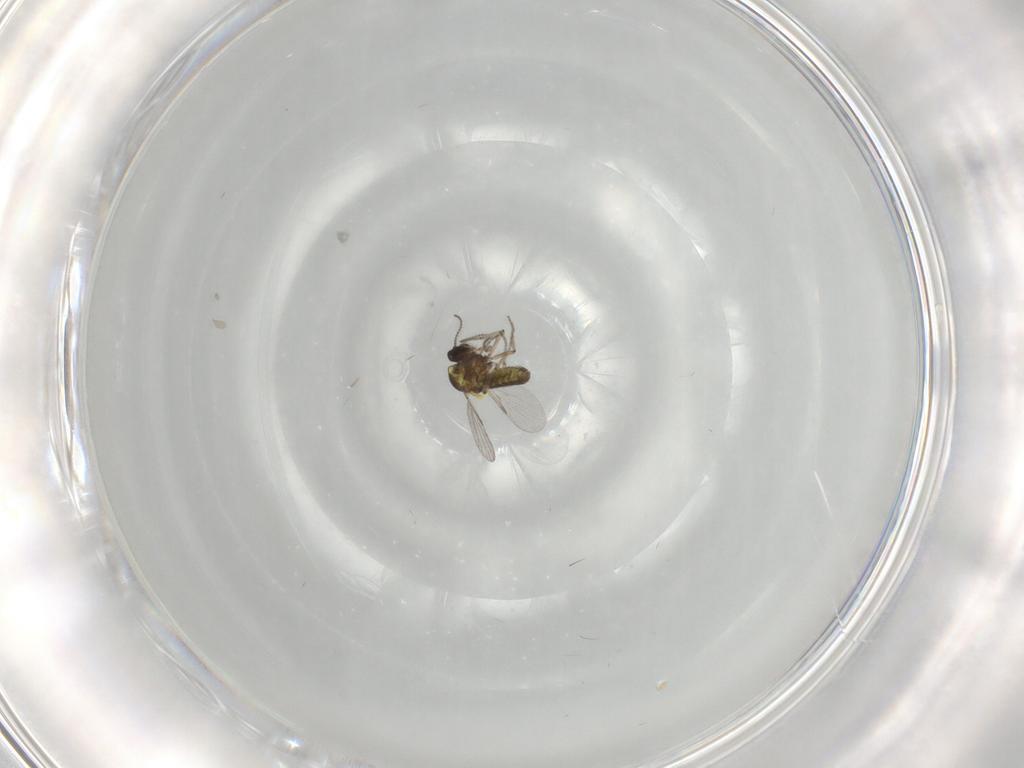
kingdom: Animalia
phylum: Arthropoda
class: Insecta
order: Diptera
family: Ceratopogonidae
